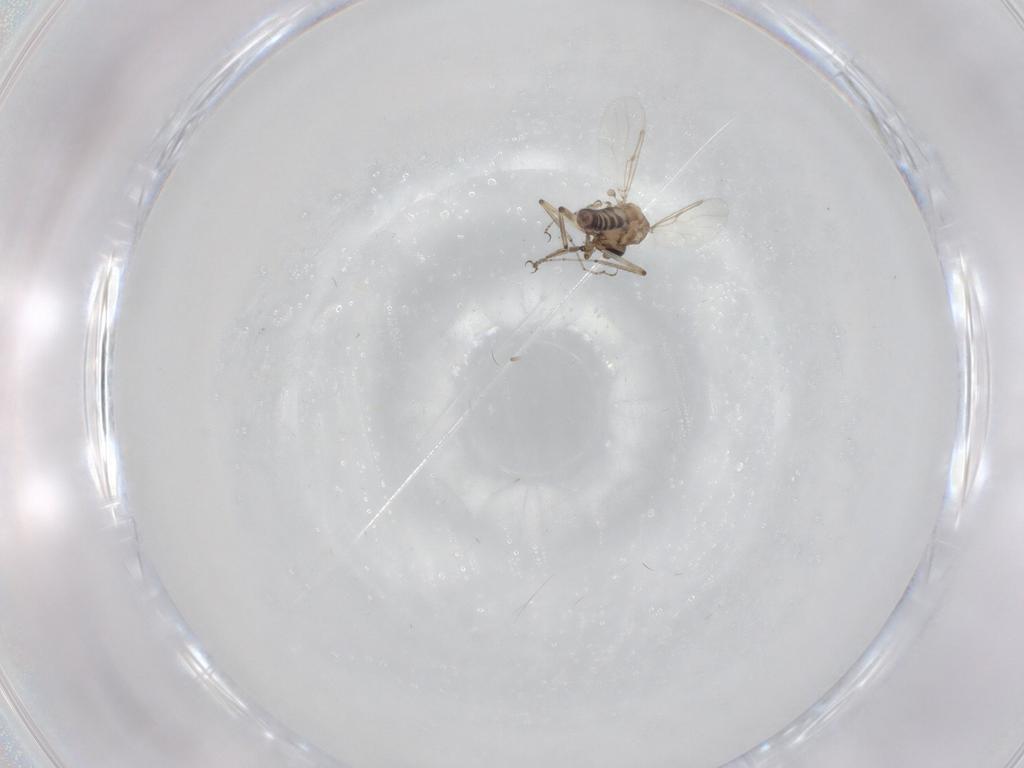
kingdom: Animalia
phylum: Arthropoda
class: Insecta
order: Diptera
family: Ceratopogonidae
